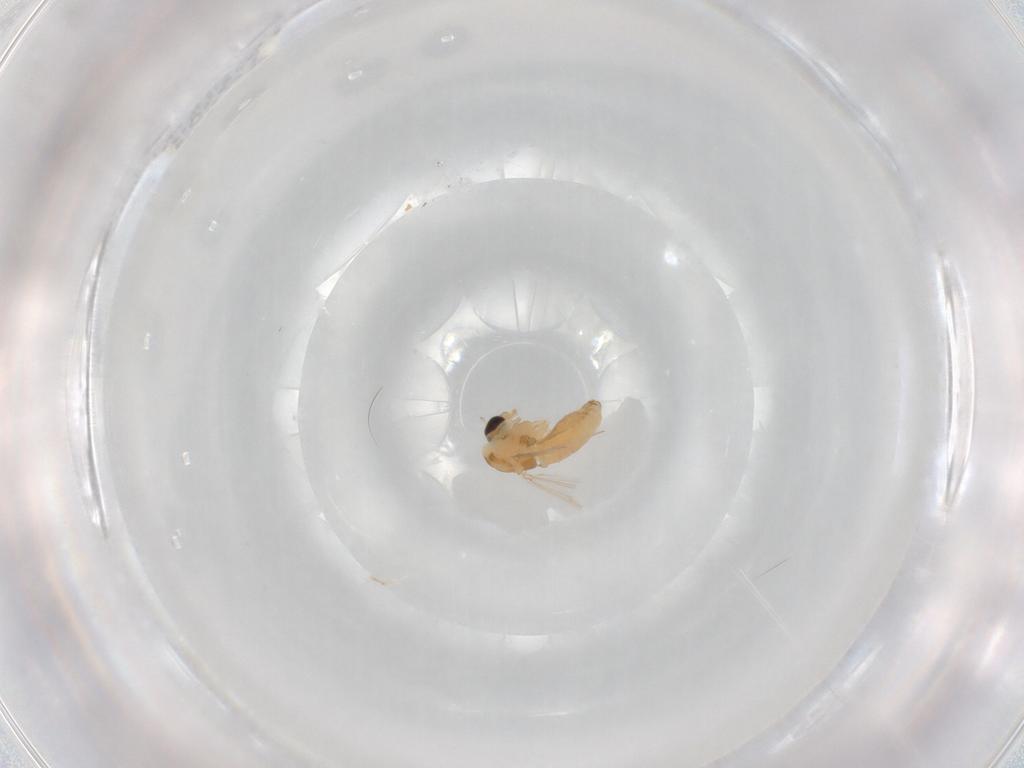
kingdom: Animalia
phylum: Arthropoda
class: Insecta
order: Diptera
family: Chironomidae
